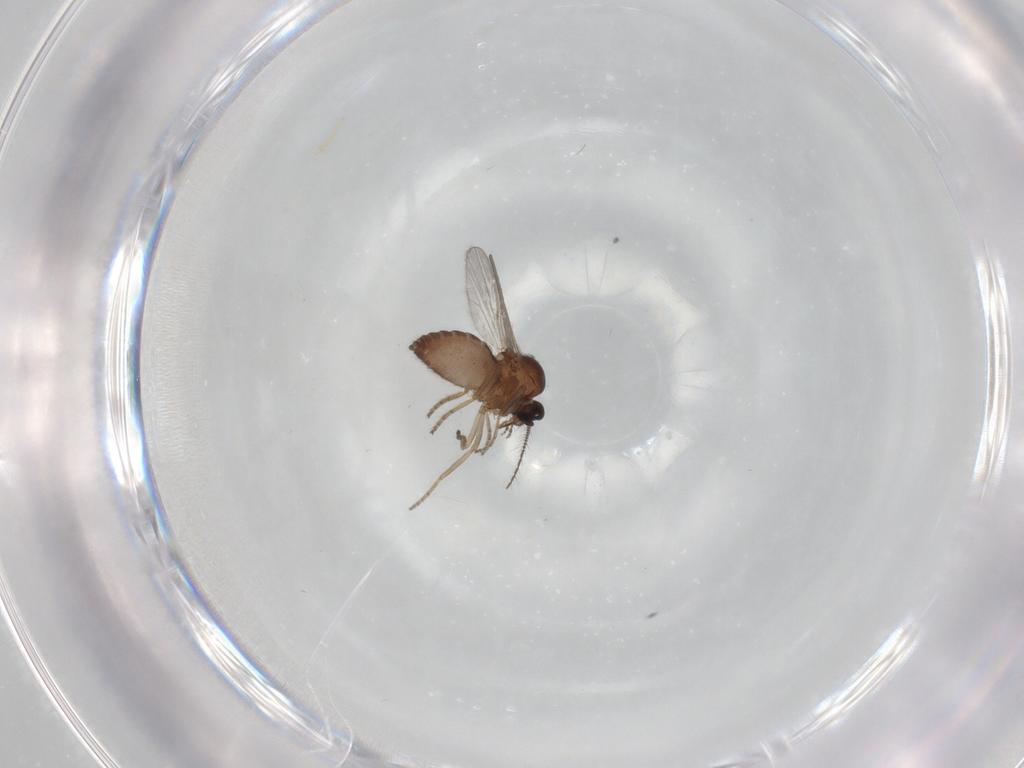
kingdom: Animalia
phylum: Arthropoda
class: Insecta
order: Diptera
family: Ceratopogonidae
